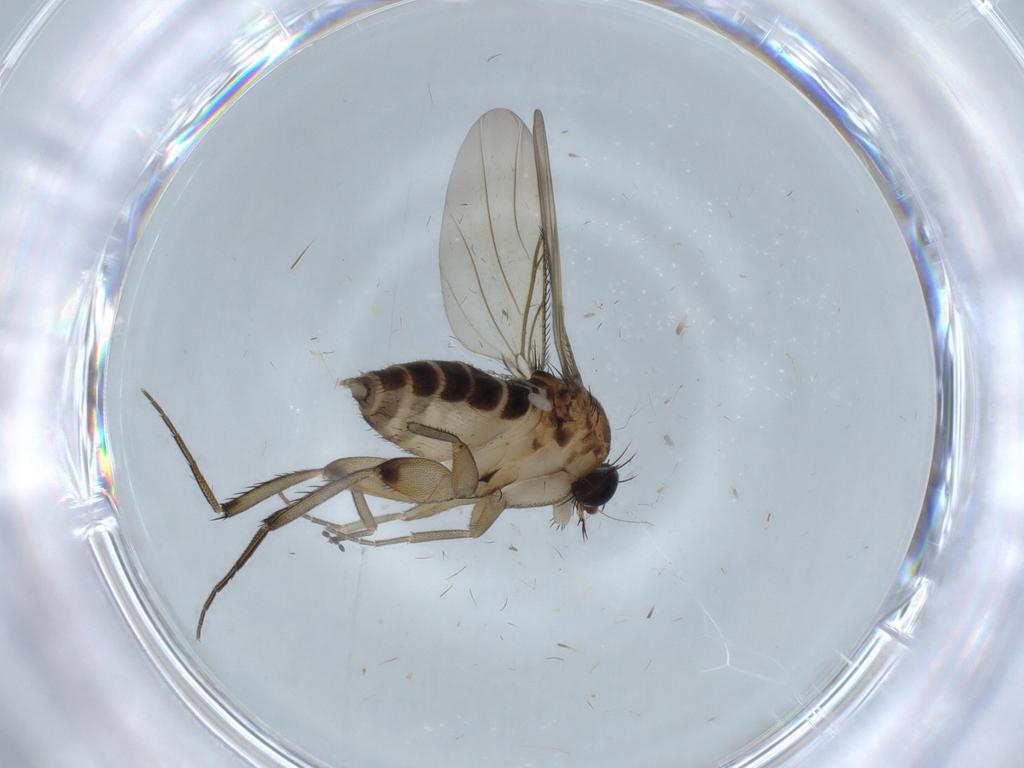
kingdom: Animalia
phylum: Arthropoda
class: Insecta
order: Diptera
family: Phoridae
